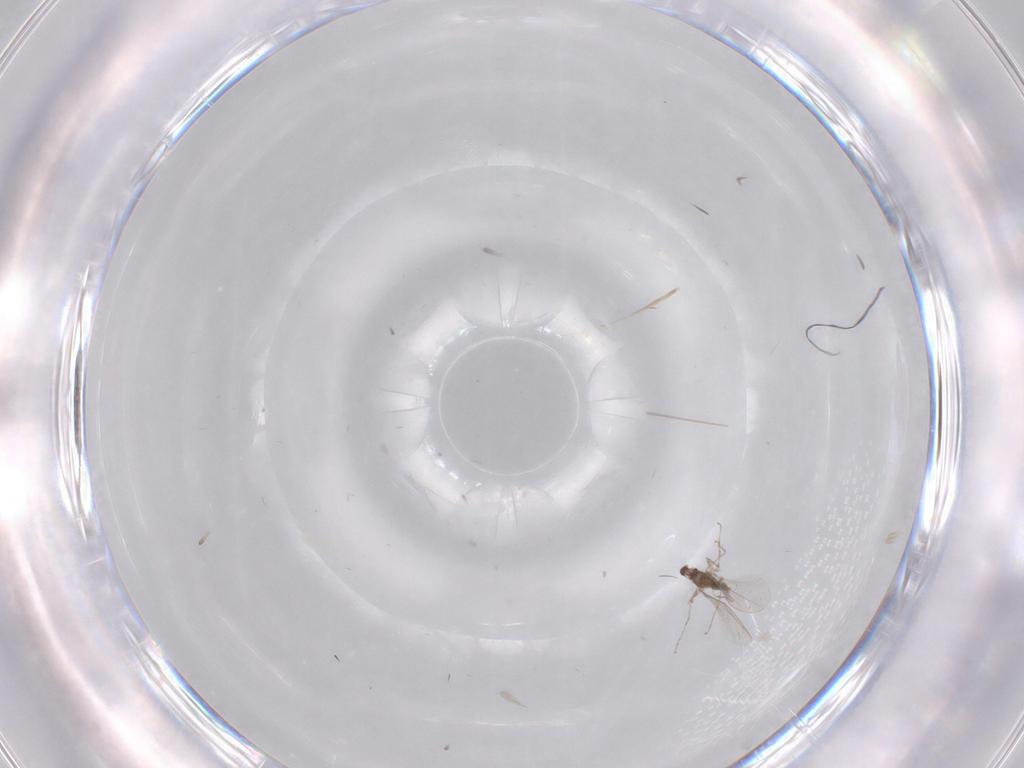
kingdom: Animalia
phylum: Arthropoda
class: Insecta
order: Diptera
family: Cecidomyiidae
